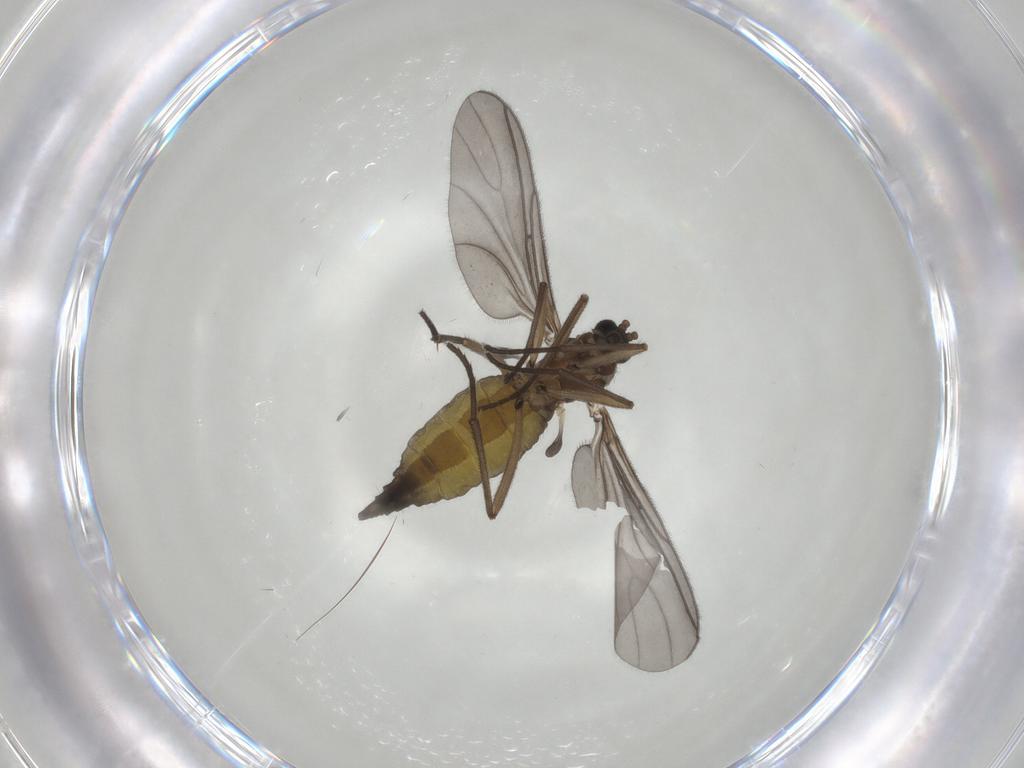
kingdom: Animalia
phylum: Arthropoda
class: Insecta
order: Diptera
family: Sciaridae
